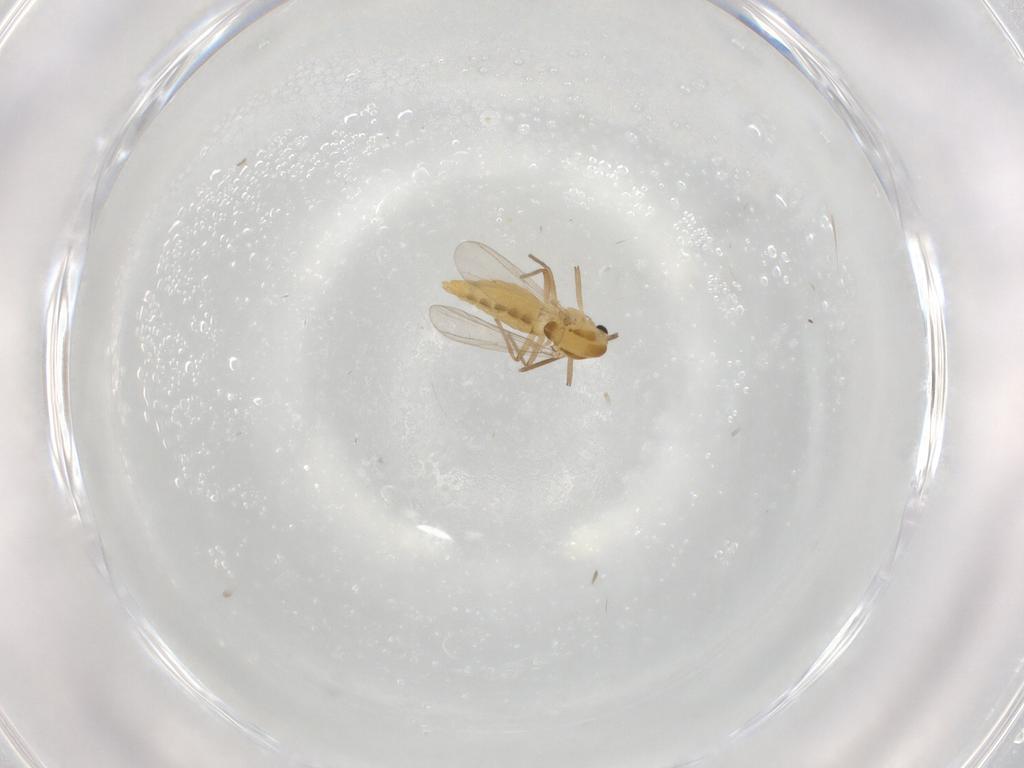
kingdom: Animalia
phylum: Arthropoda
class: Insecta
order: Diptera
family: Chironomidae
